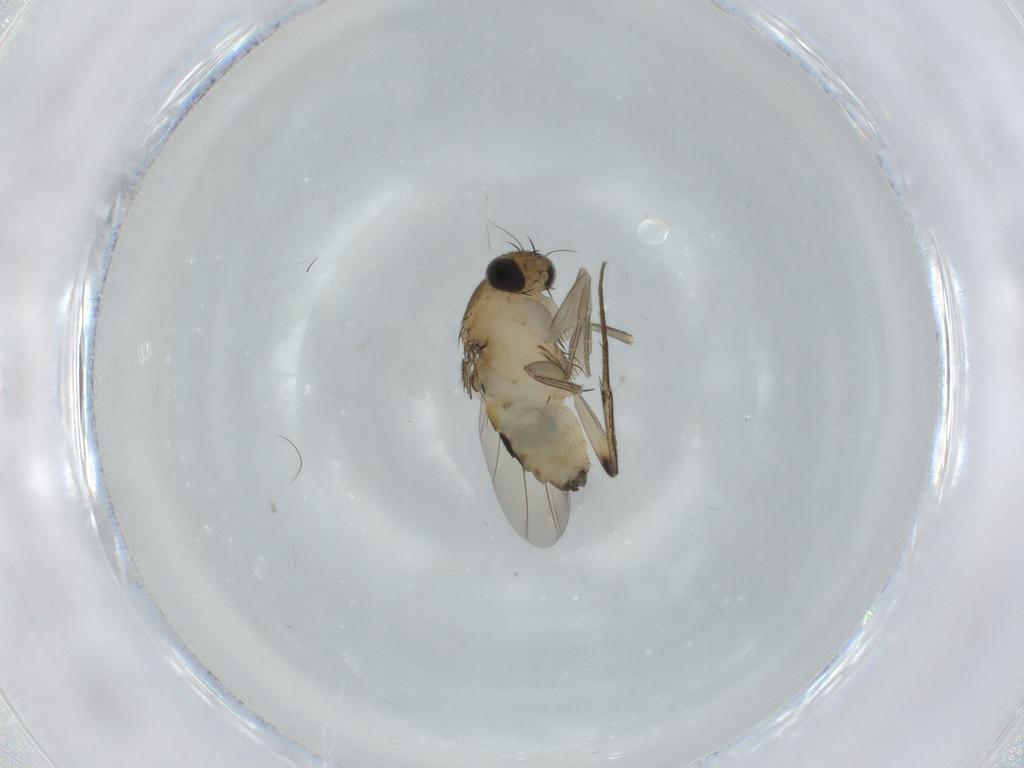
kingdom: Animalia
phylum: Arthropoda
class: Insecta
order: Diptera
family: Phoridae
